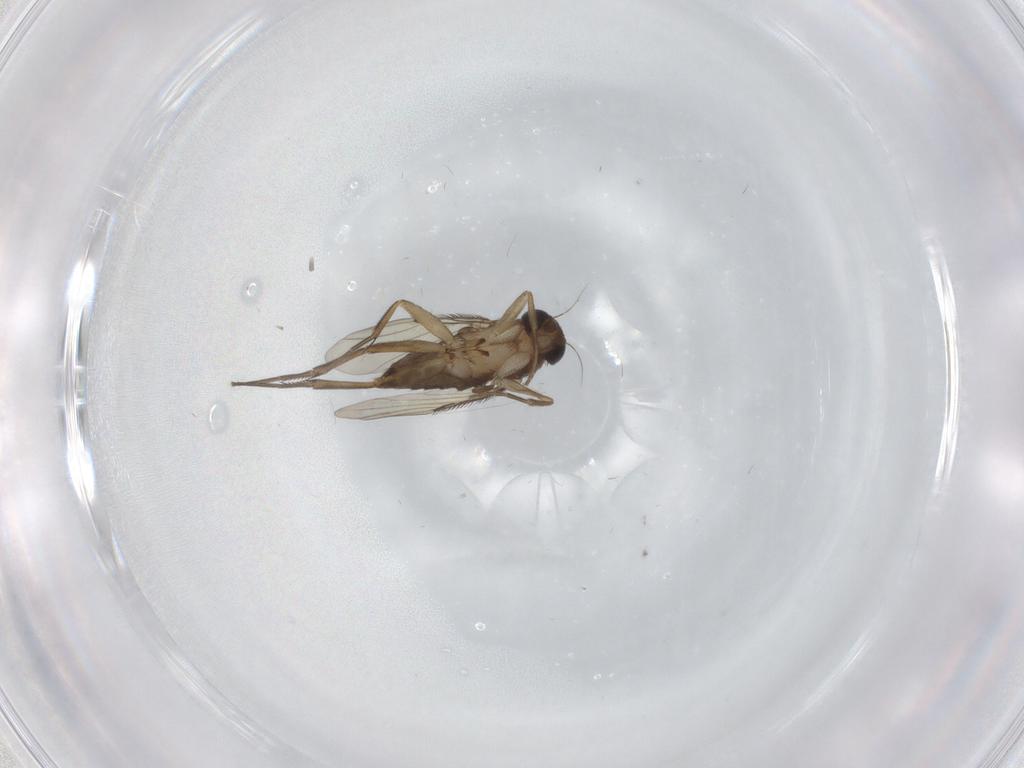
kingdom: Animalia
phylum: Arthropoda
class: Insecta
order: Diptera
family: Phoridae
